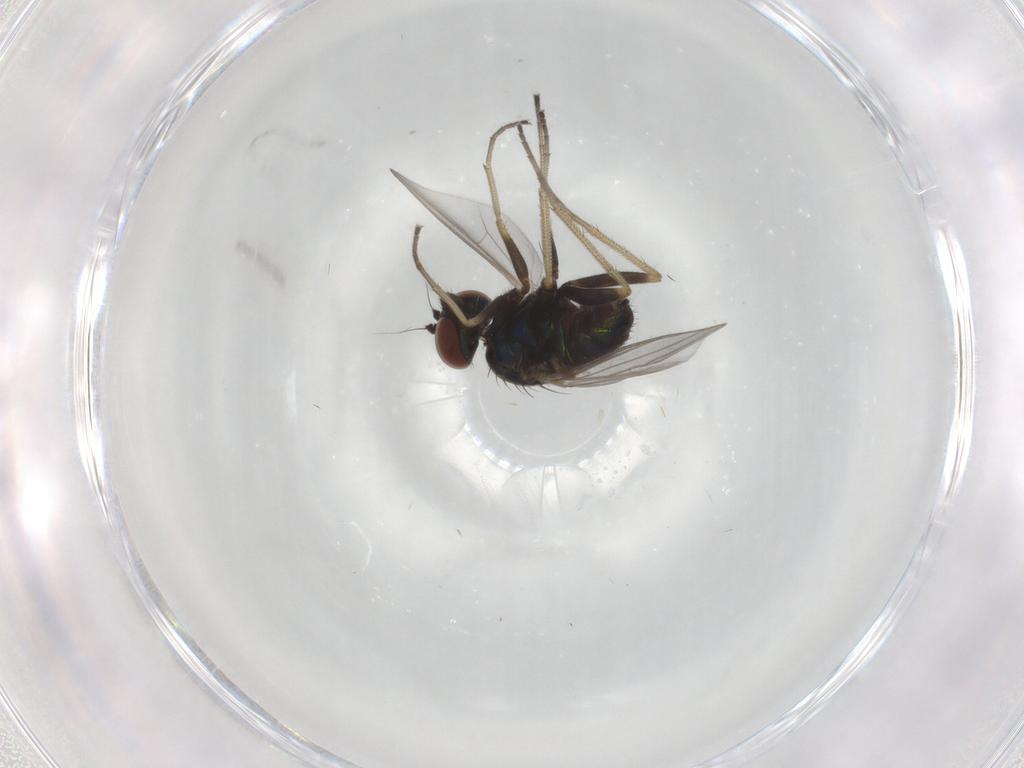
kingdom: Animalia
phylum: Arthropoda
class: Insecta
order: Diptera
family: Dolichopodidae
